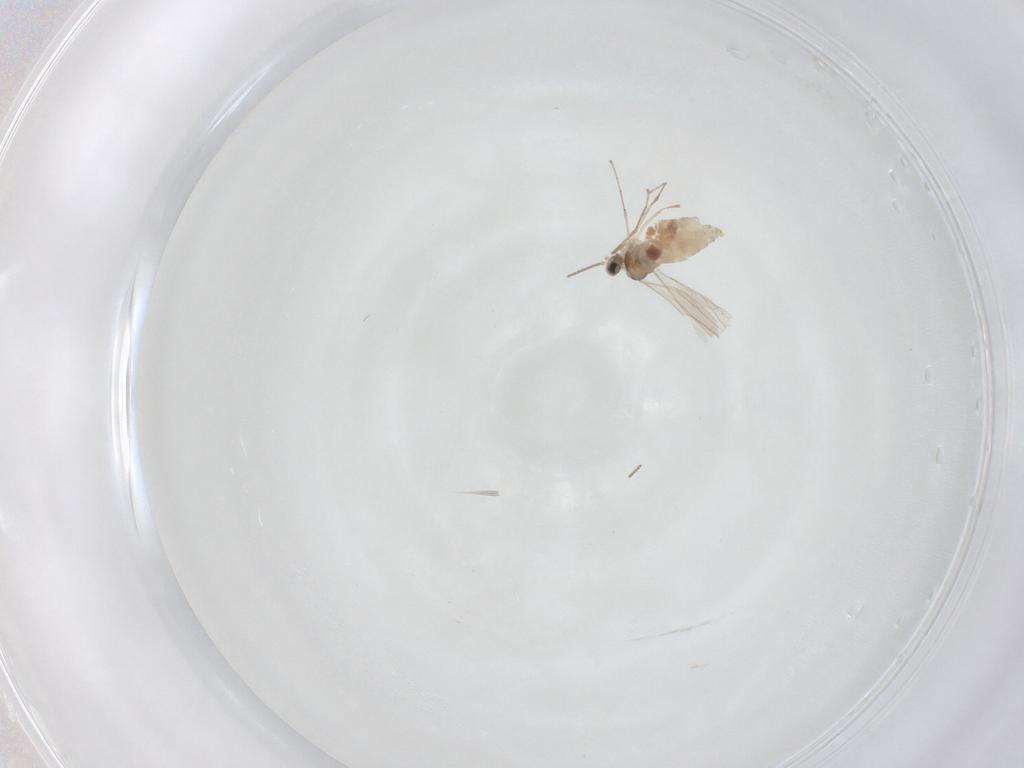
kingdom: Animalia
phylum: Arthropoda
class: Insecta
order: Diptera
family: Cecidomyiidae
